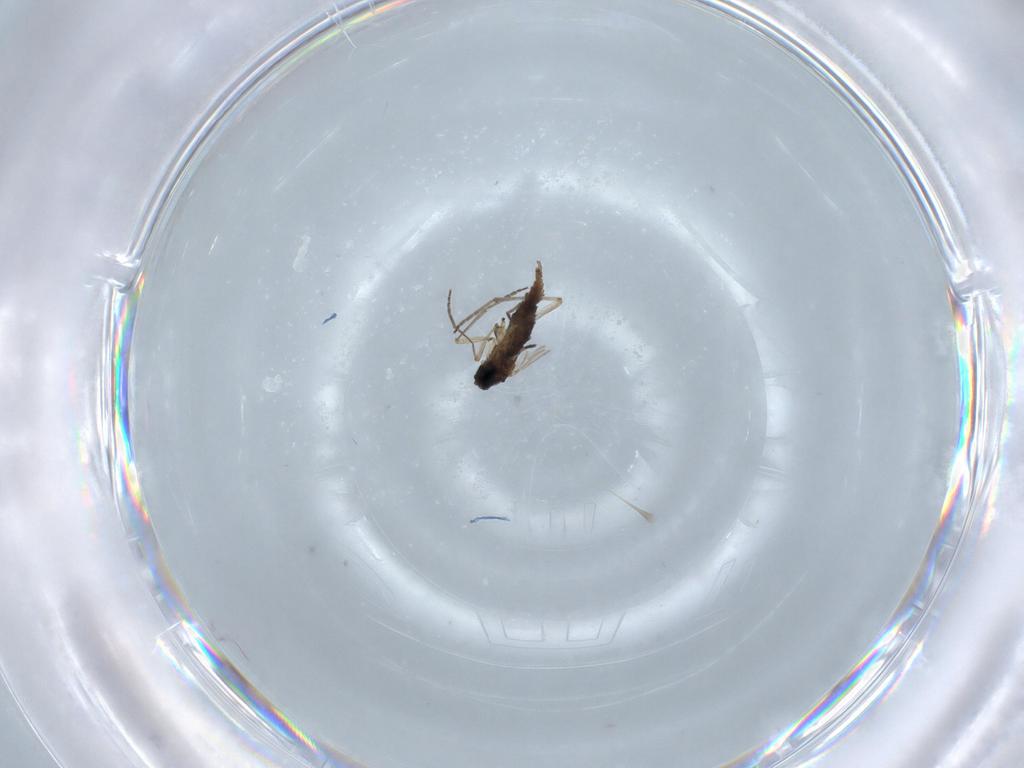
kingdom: Animalia
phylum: Arthropoda
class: Insecta
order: Diptera
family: Sciaridae
